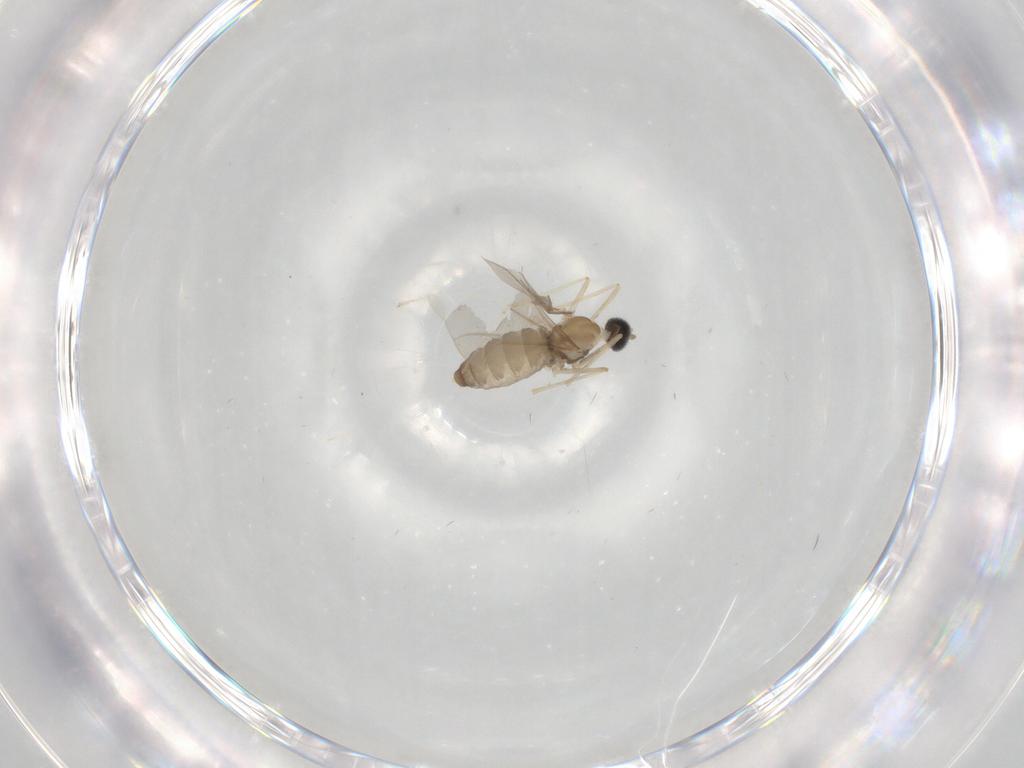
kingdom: Animalia
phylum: Arthropoda
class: Insecta
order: Diptera
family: Cecidomyiidae
